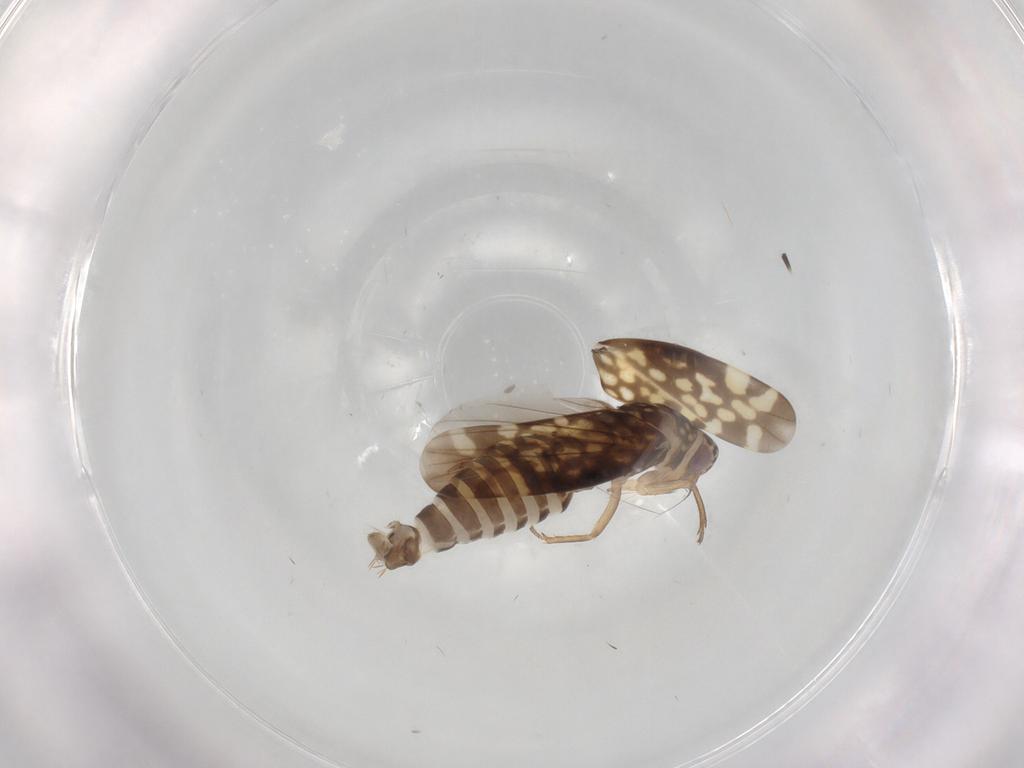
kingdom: Animalia
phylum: Arthropoda
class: Insecta
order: Hemiptera
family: Cicadellidae
